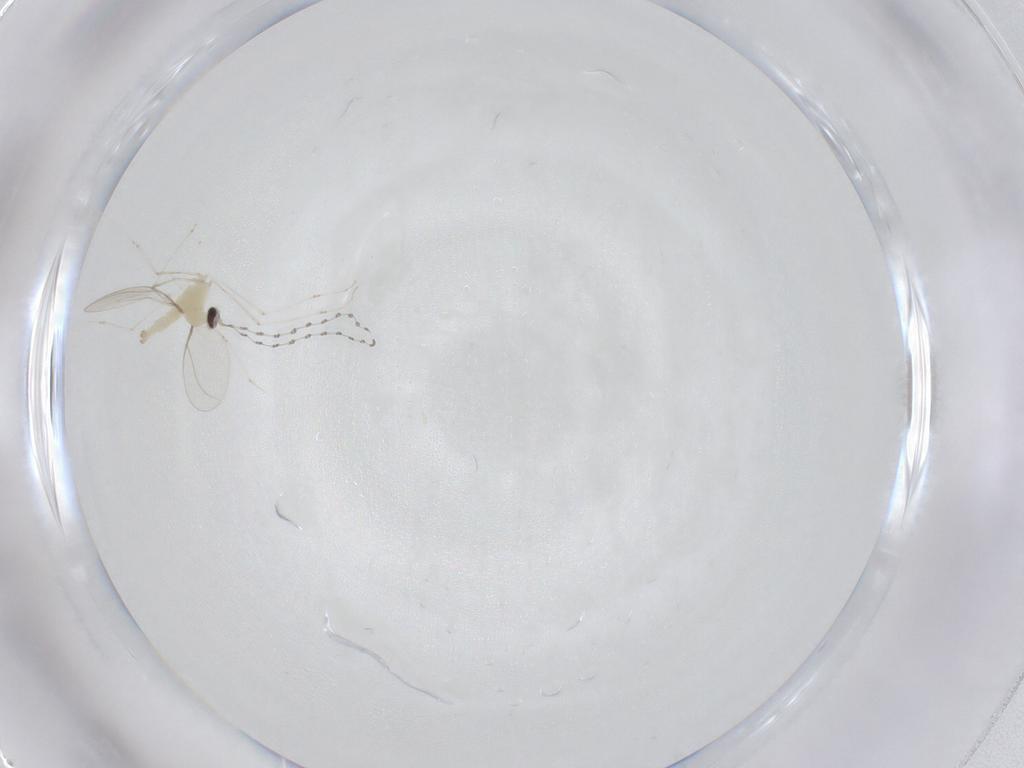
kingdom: Animalia
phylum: Arthropoda
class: Insecta
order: Diptera
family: Cecidomyiidae
